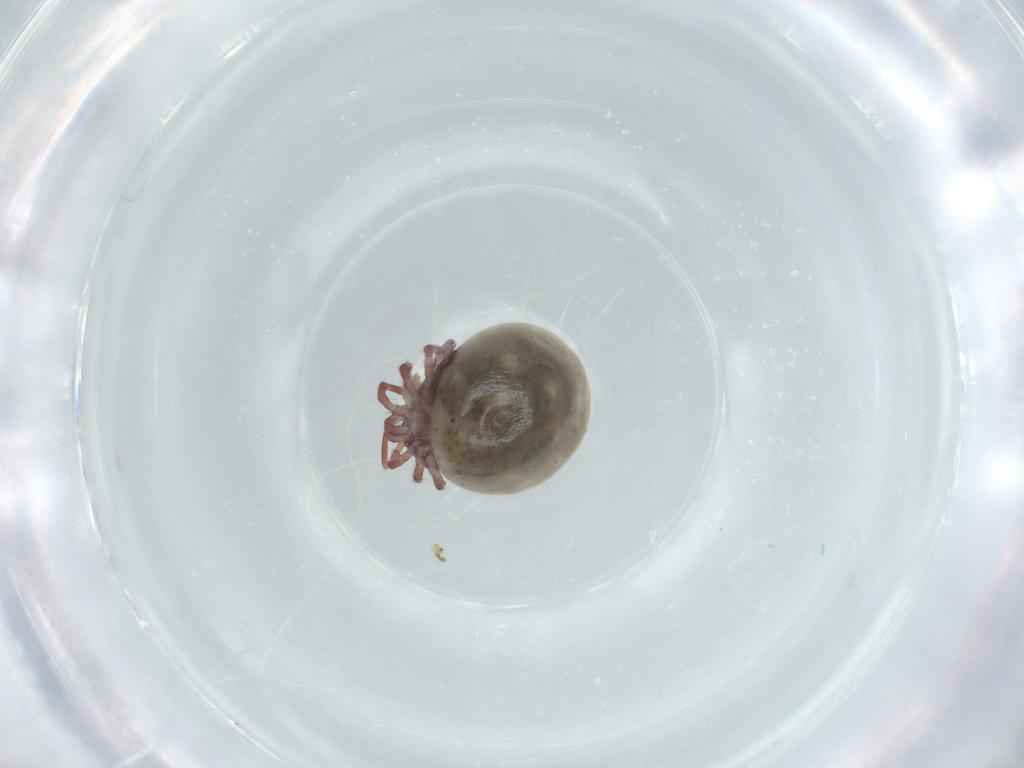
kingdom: Animalia
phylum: Arthropoda
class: Arachnida
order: Trombidiformes
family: Lebertiidae
